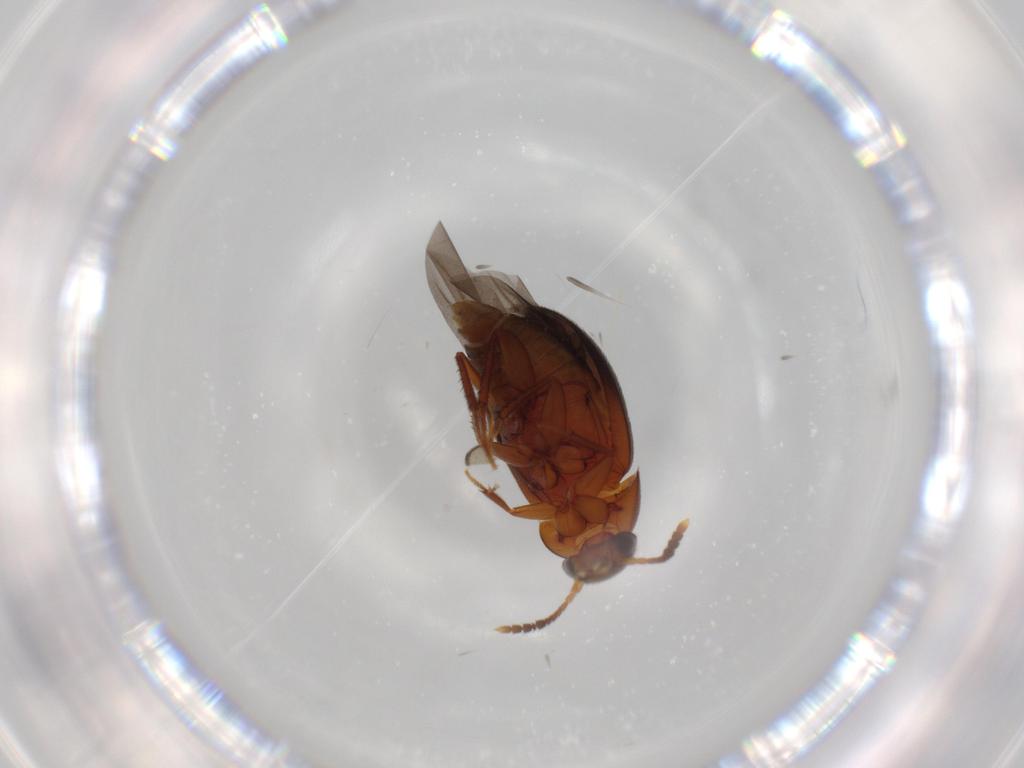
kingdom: Animalia
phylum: Arthropoda
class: Insecta
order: Coleoptera
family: Leiodidae
